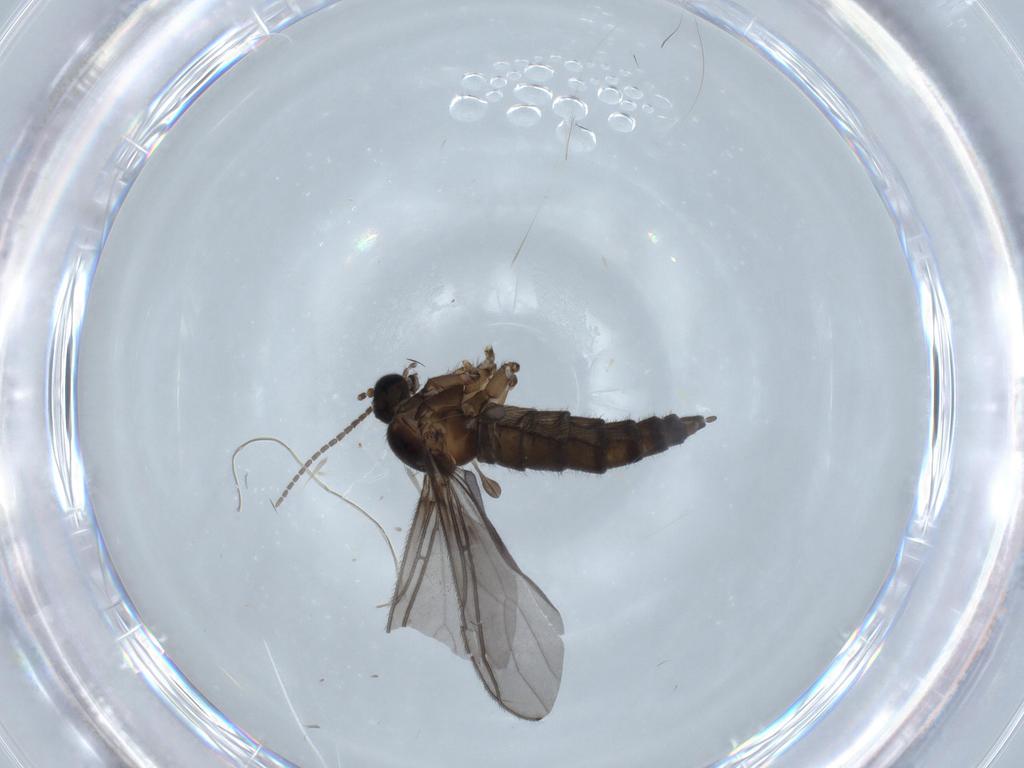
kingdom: Animalia
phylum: Arthropoda
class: Insecta
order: Diptera
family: Sciaridae
